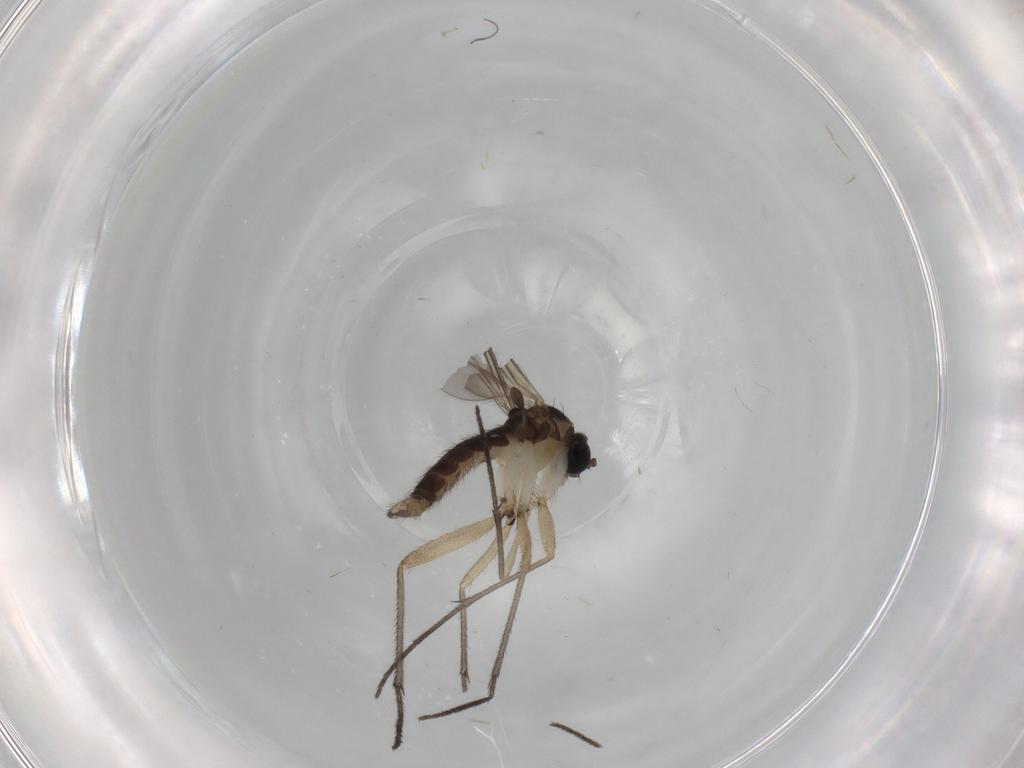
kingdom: Animalia
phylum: Arthropoda
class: Insecta
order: Diptera
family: Sciaridae
